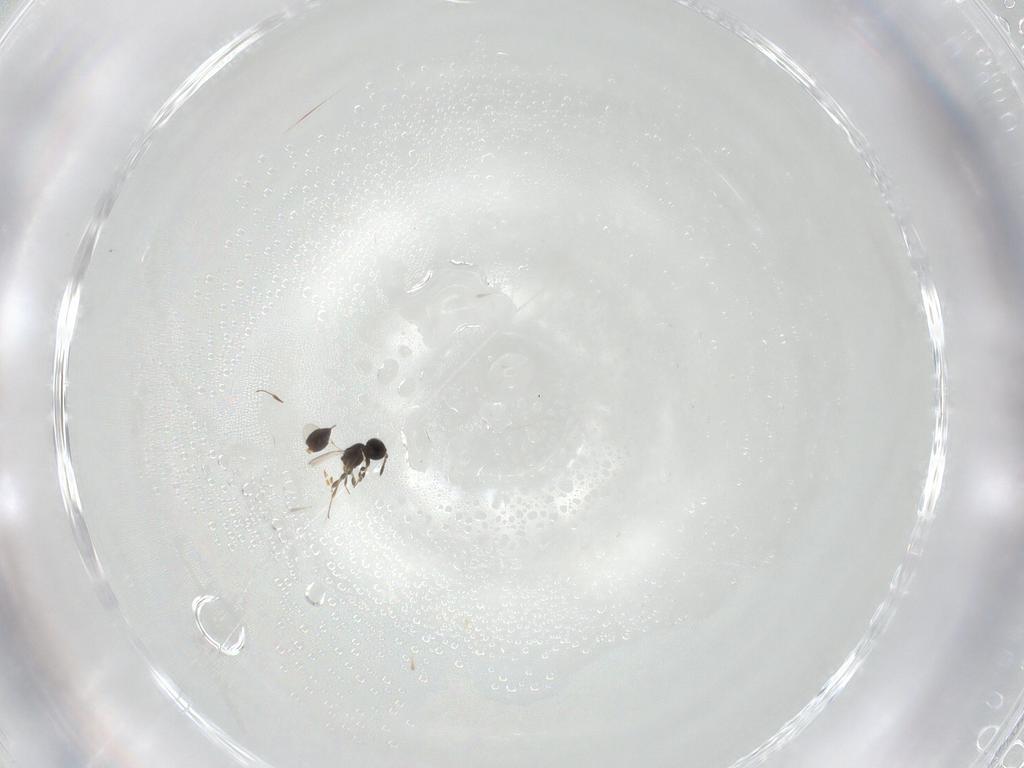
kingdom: Animalia
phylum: Arthropoda
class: Insecta
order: Hymenoptera
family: Platygastridae
